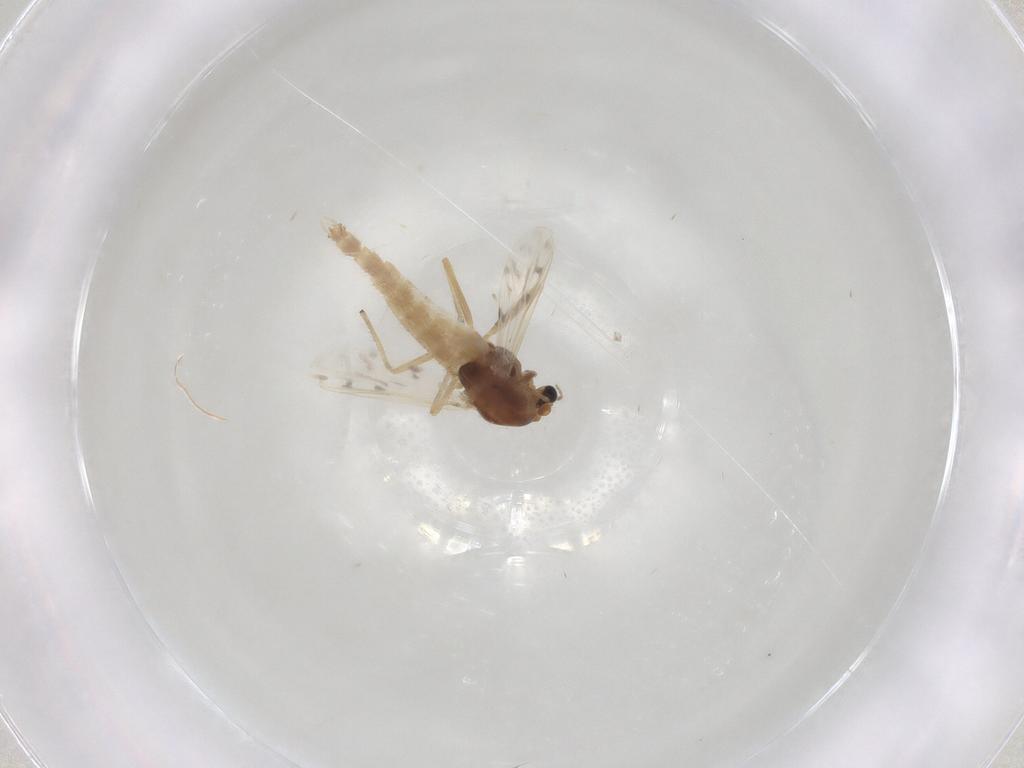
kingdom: Animalia
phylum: Arthropoda
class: Insecta
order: Diptera
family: Chironomidae
